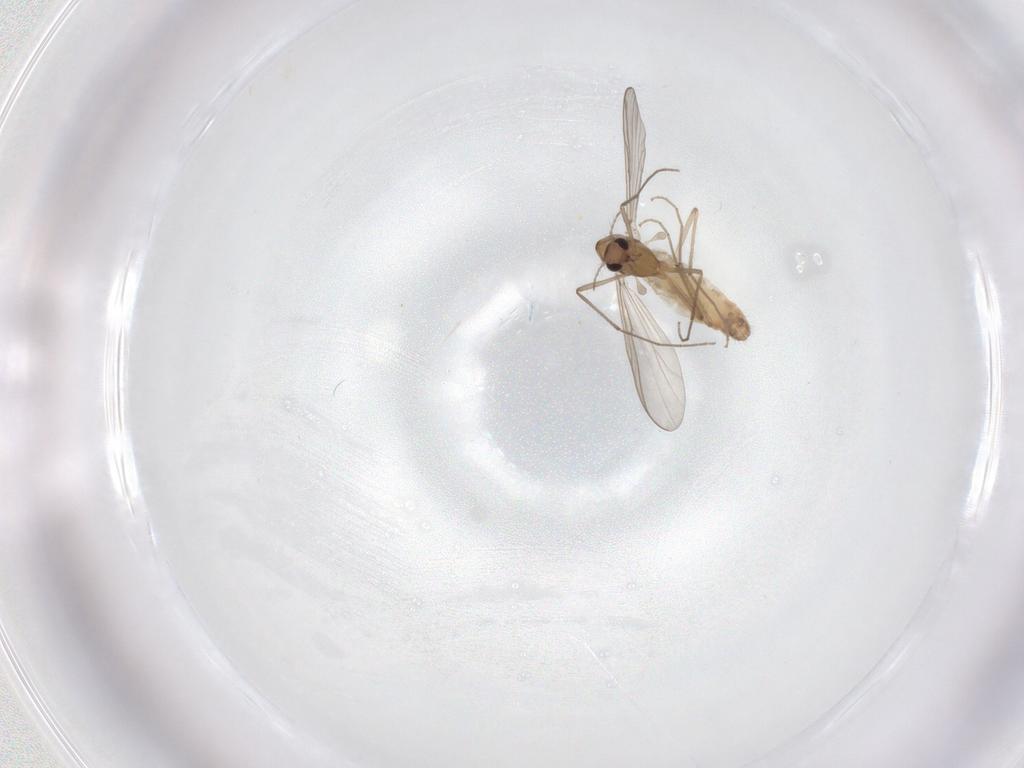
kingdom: Animalia
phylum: Arthropoda
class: Insecta
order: Diptera
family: Chironomidae
